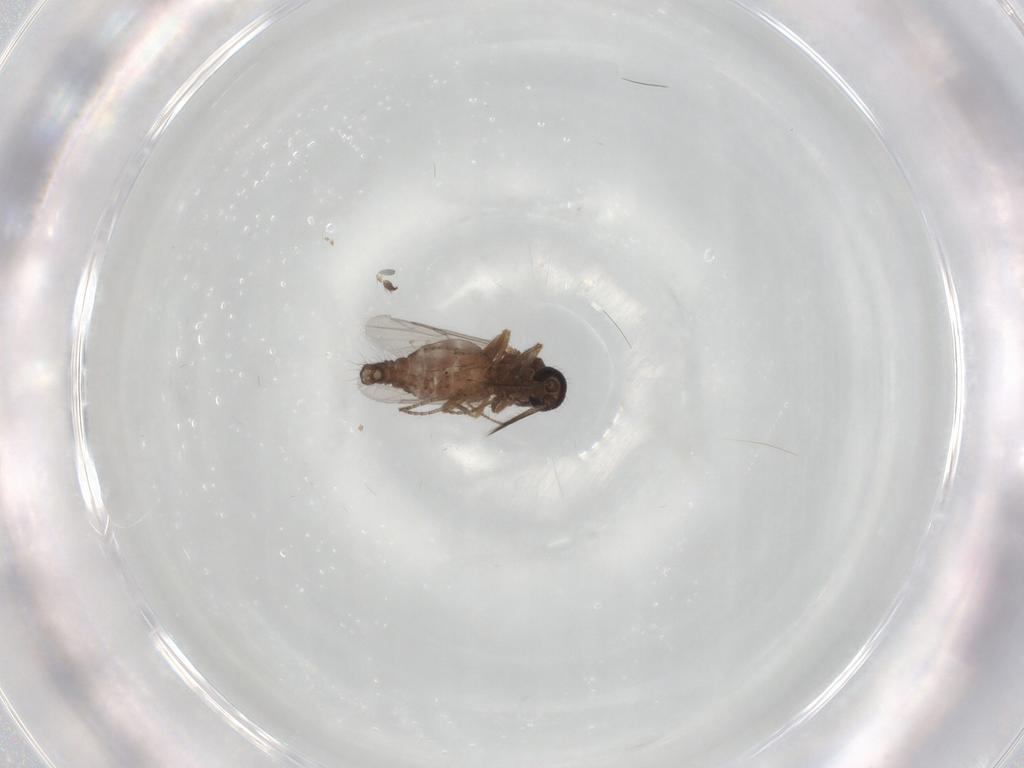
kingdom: Animalia
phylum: Arthropoda
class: Insecta
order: Diptera
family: Ceratopogonidae
